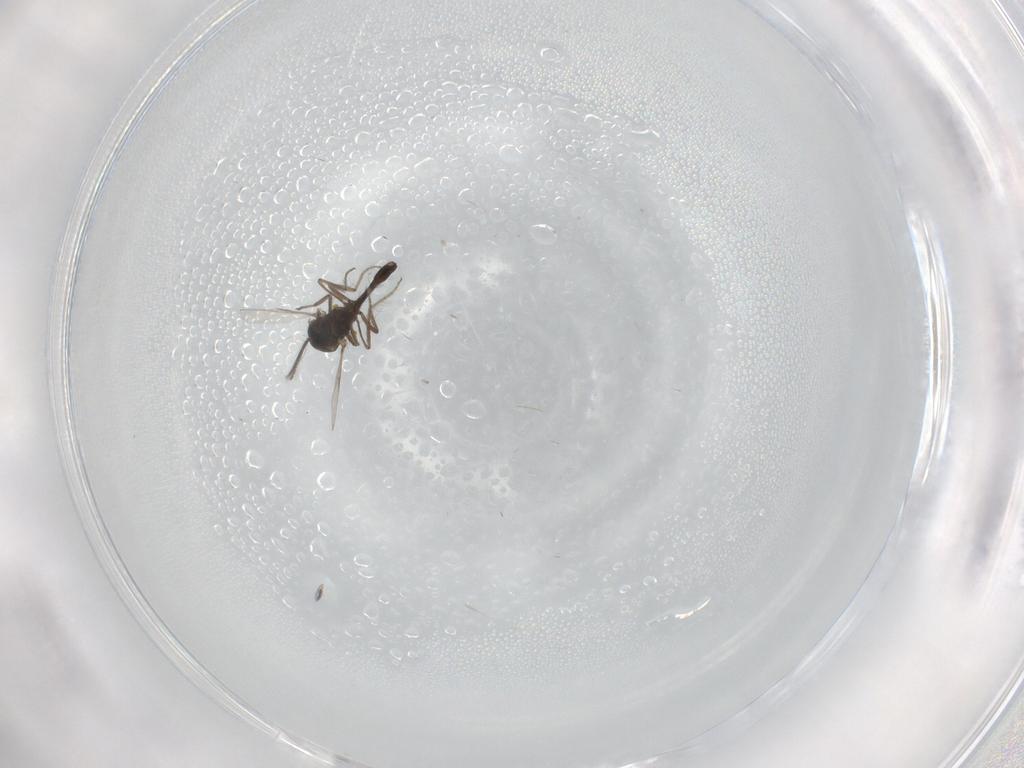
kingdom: Animalia
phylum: Arthropoda
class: Insecta
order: Diptera
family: Ceratopogonidae
